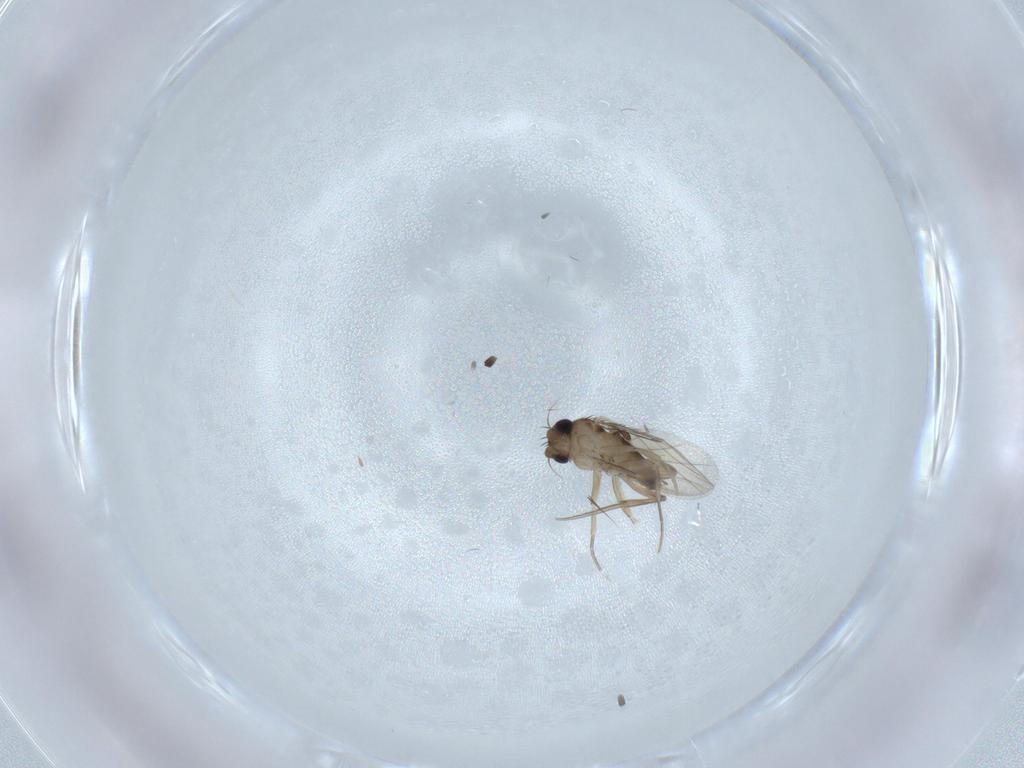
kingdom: Animalia
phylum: Arthropoda
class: Insecta
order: Diptera
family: Phoridae
